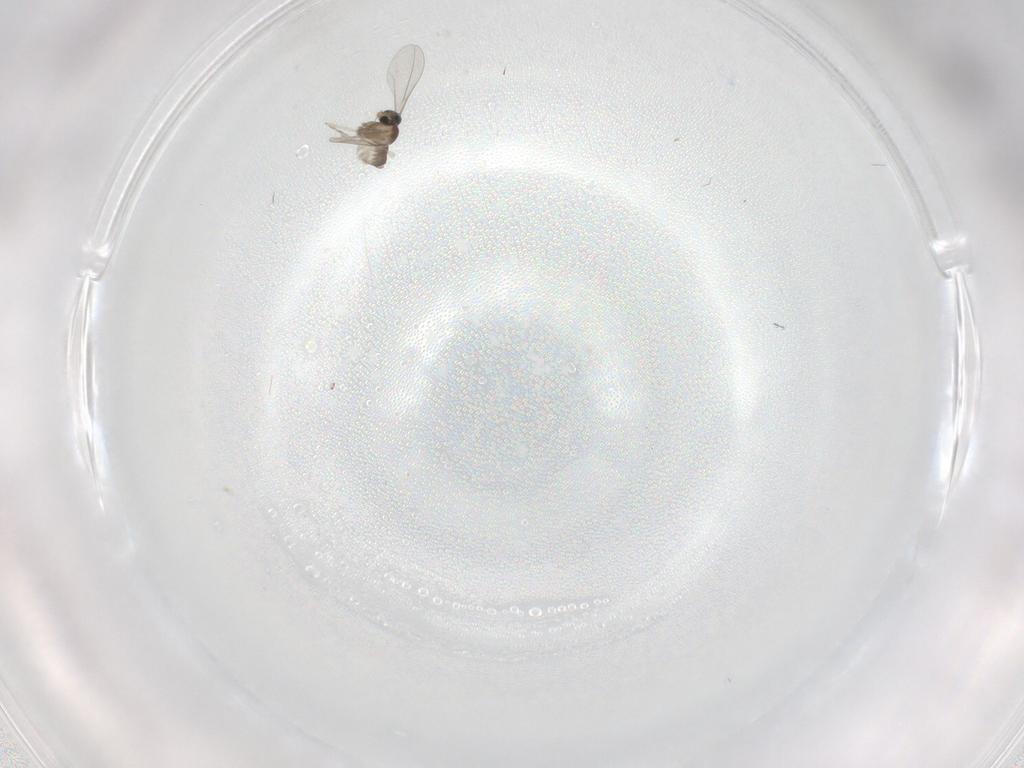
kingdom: Animalia
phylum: Arthropoda
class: Insecta
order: Diptera
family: Cecidomyiidae
